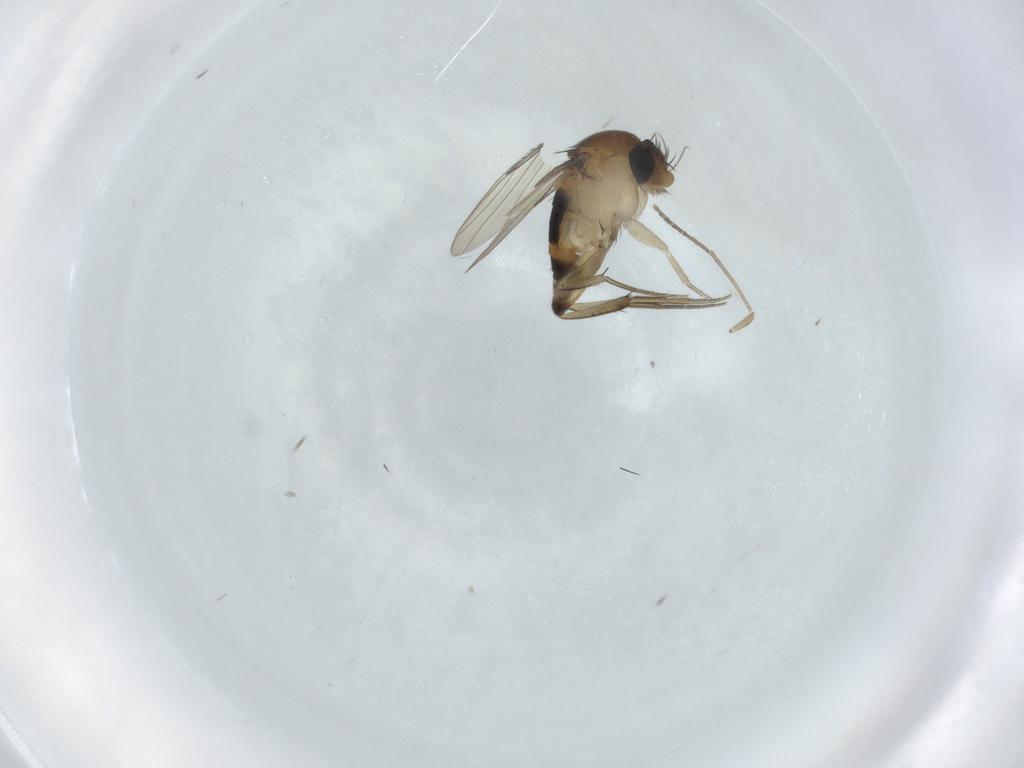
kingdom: Animalia
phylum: Arthropoda
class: Insecta
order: Diptera
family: Phoridae
